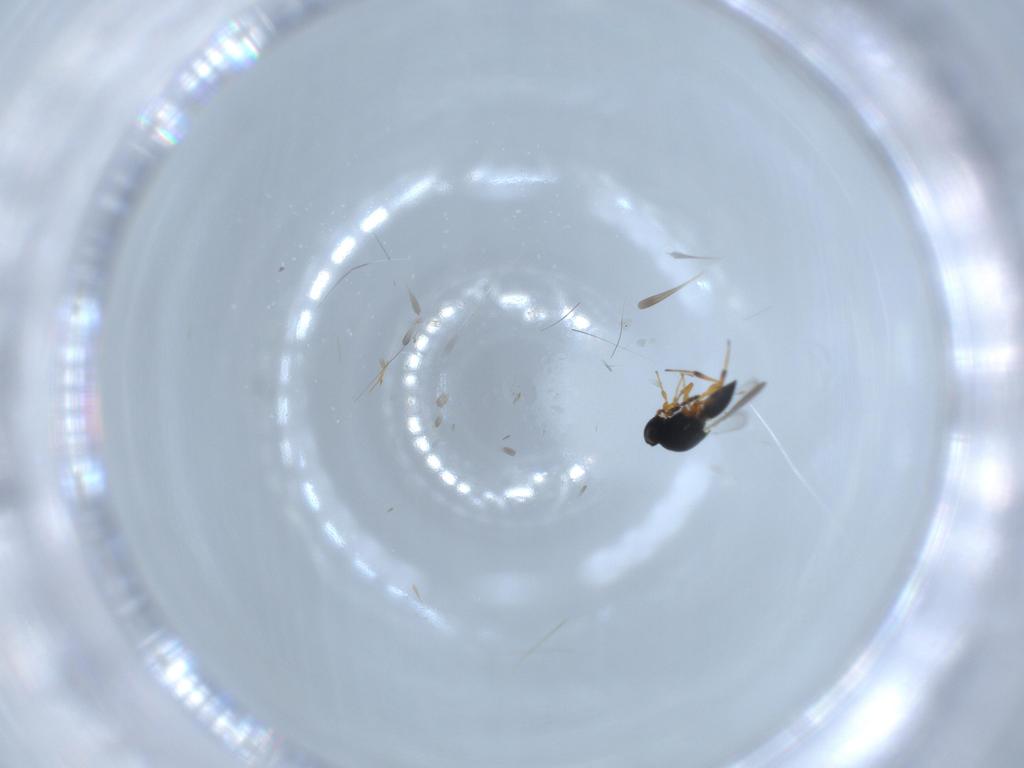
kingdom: Animalia
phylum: Arthropoda
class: Insecta
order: Hymenoptera
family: Platygastridae
